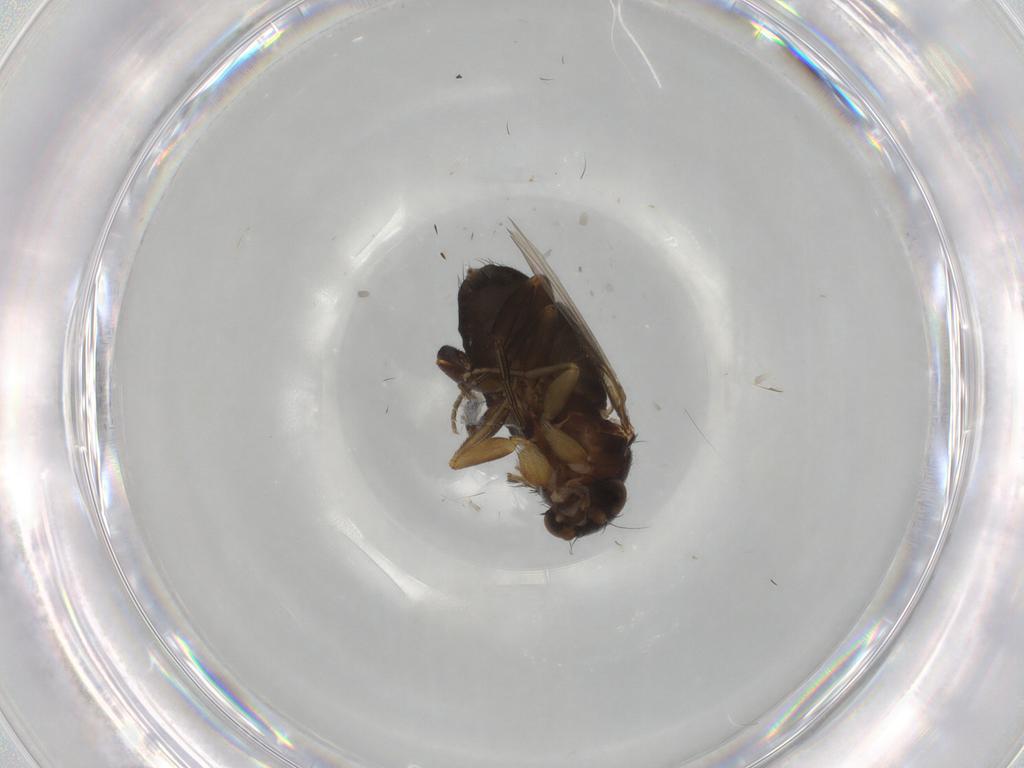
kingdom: Animalia
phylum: Arthropoda
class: Insecta
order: Diptera
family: Phoridae
